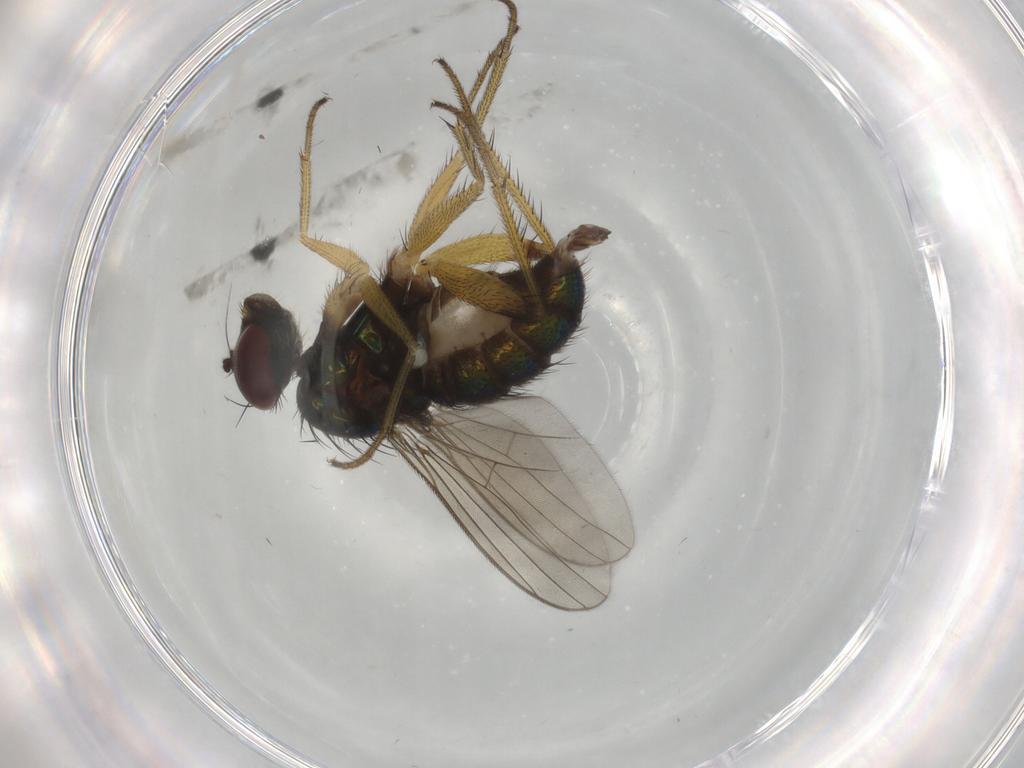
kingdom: Animalia
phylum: Arthropoda
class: Insecta
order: Diptera
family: Dolichopodidae
